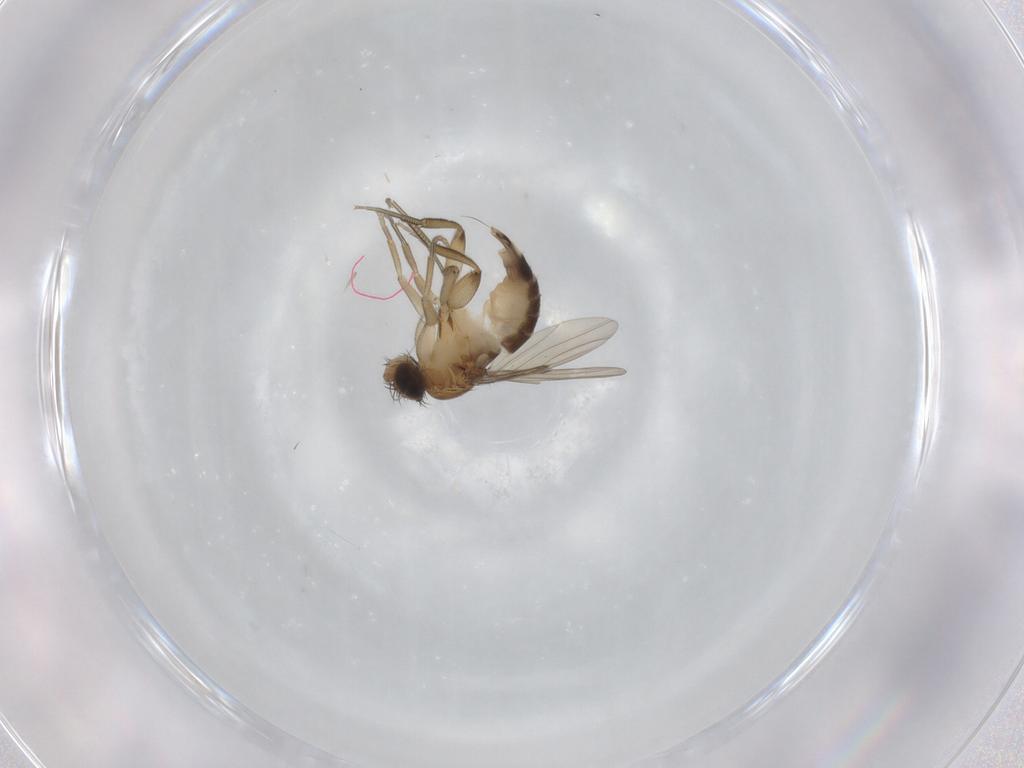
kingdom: Animalia
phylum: Arthropoda
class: Insecta
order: Diptera
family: Phoridae
